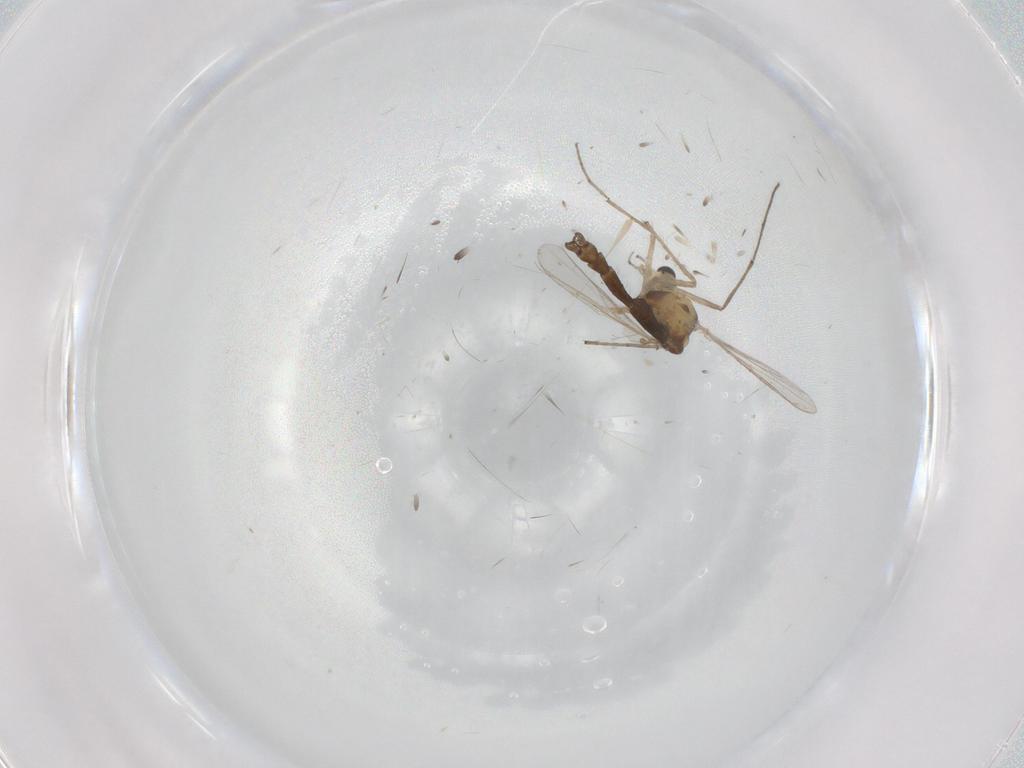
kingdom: Animalia
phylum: Arthropoda
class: Insecta
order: Diptera
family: Chironomidae
